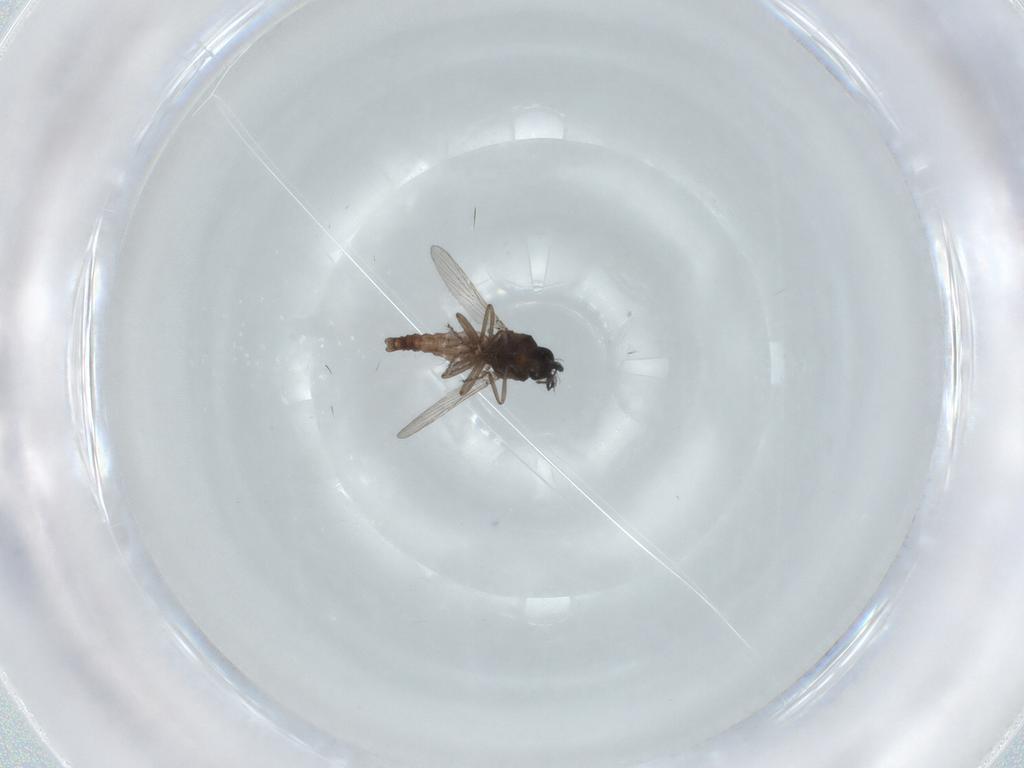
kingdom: Animalia
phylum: Arthropoda
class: Insecta
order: Diptera
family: Ceratopogonidae
